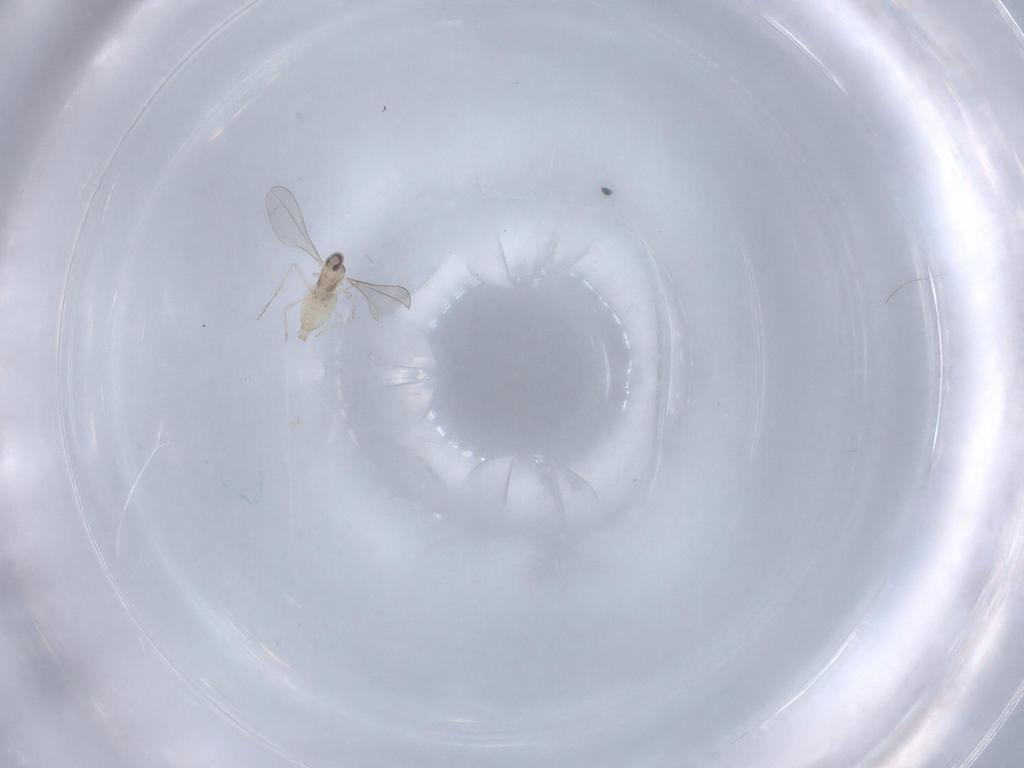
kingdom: Animalia
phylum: Arthropoda
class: Insecta
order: Diptera
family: Cecidomyiidae
